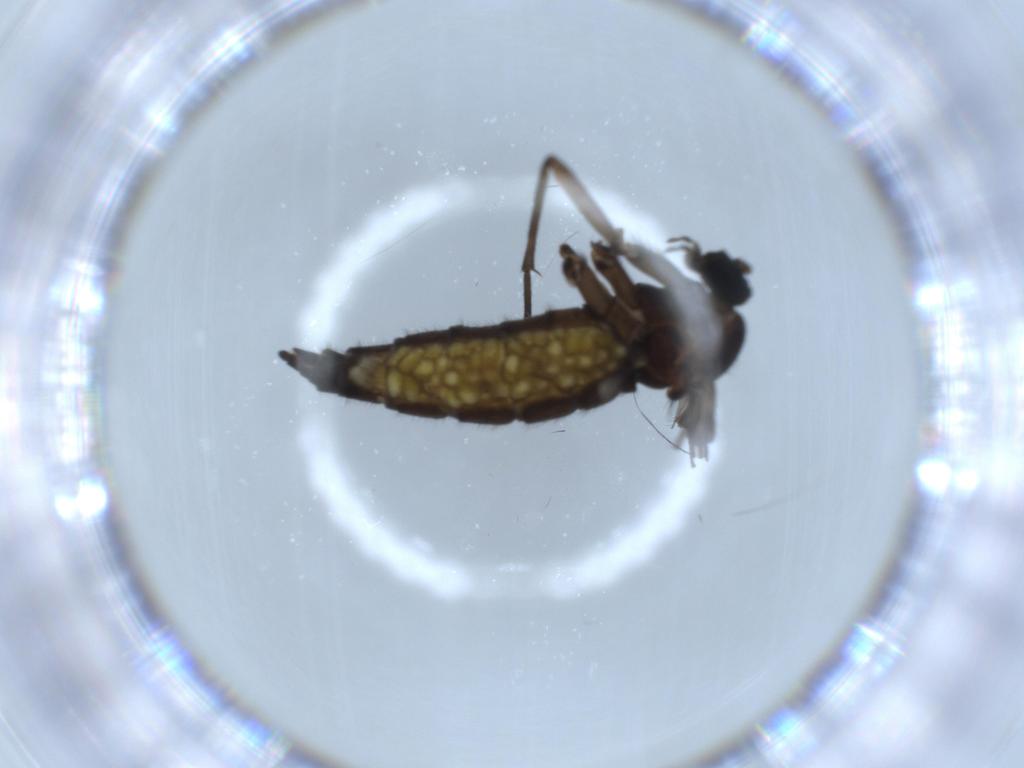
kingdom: Animalia
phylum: Arthropoda
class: Insecta
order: Diptera
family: Sciaridae
